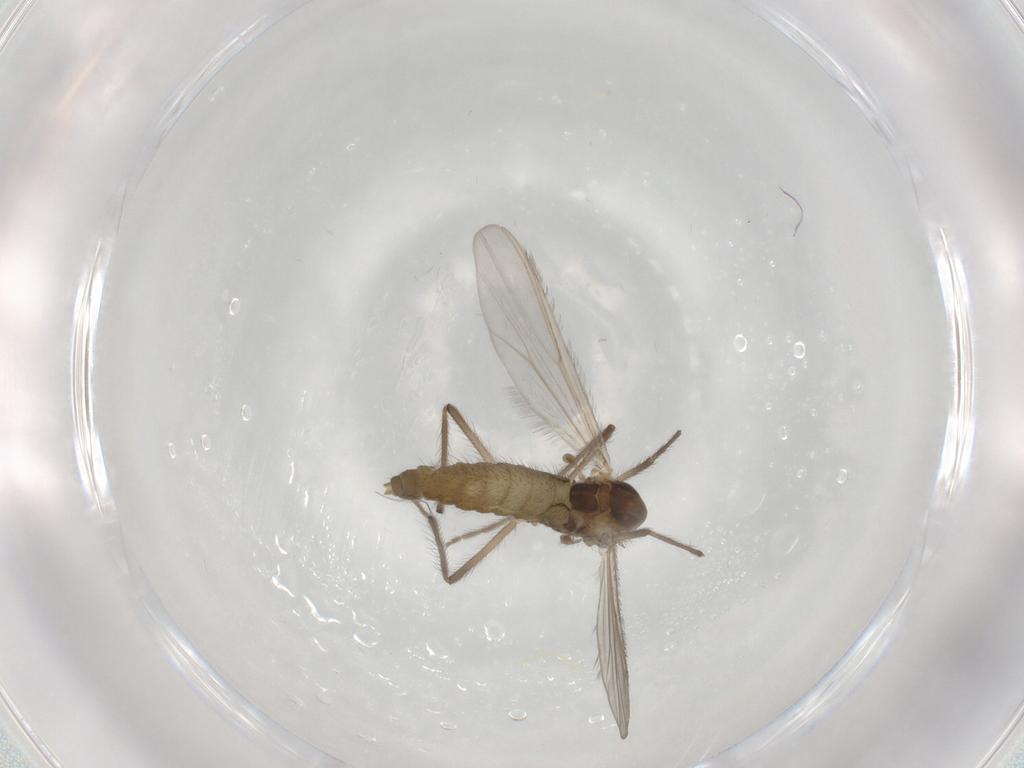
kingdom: Animalia
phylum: Arthropoda
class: Insecta
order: Diptera
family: Chironomidae
